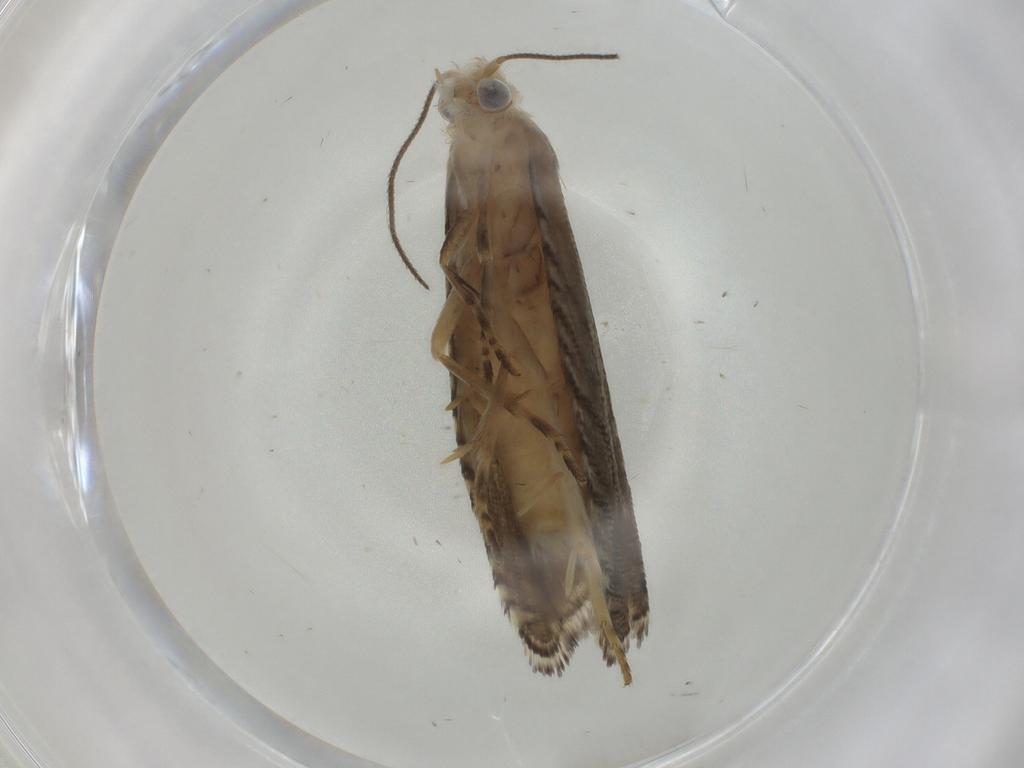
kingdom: Animalia
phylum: Arthropoda
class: Insecta
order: Lepidoptera
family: Tortricidae
